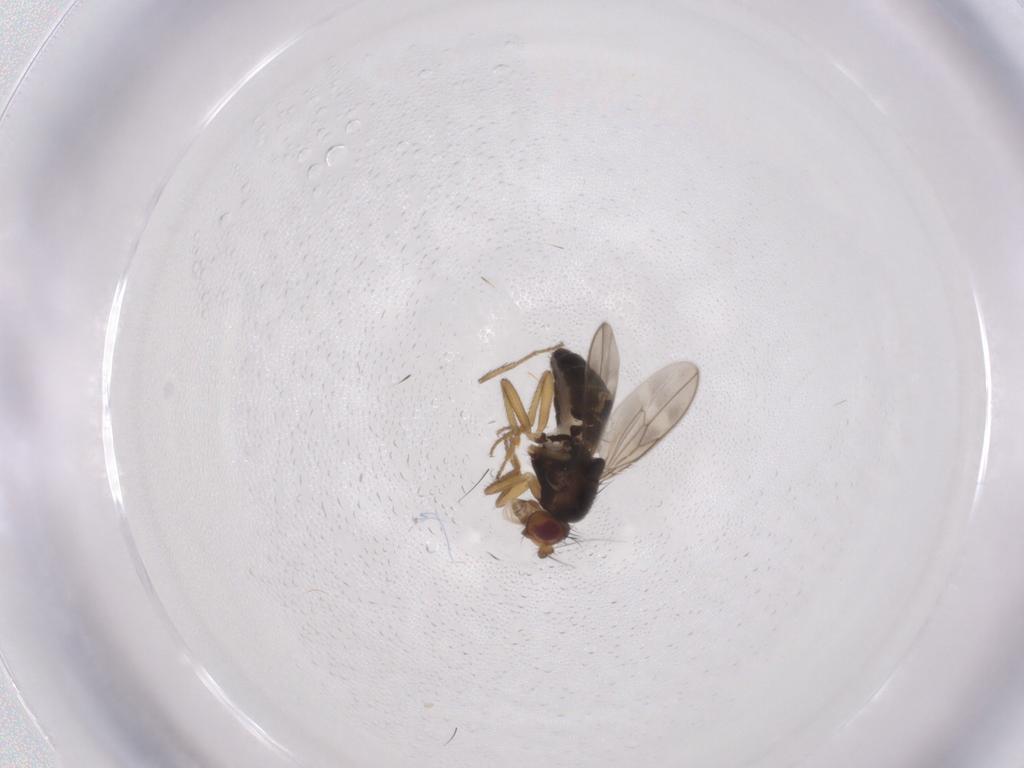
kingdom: Animalia
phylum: Arthropoda
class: Insecta
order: Diptera
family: Sphaeroceridae
